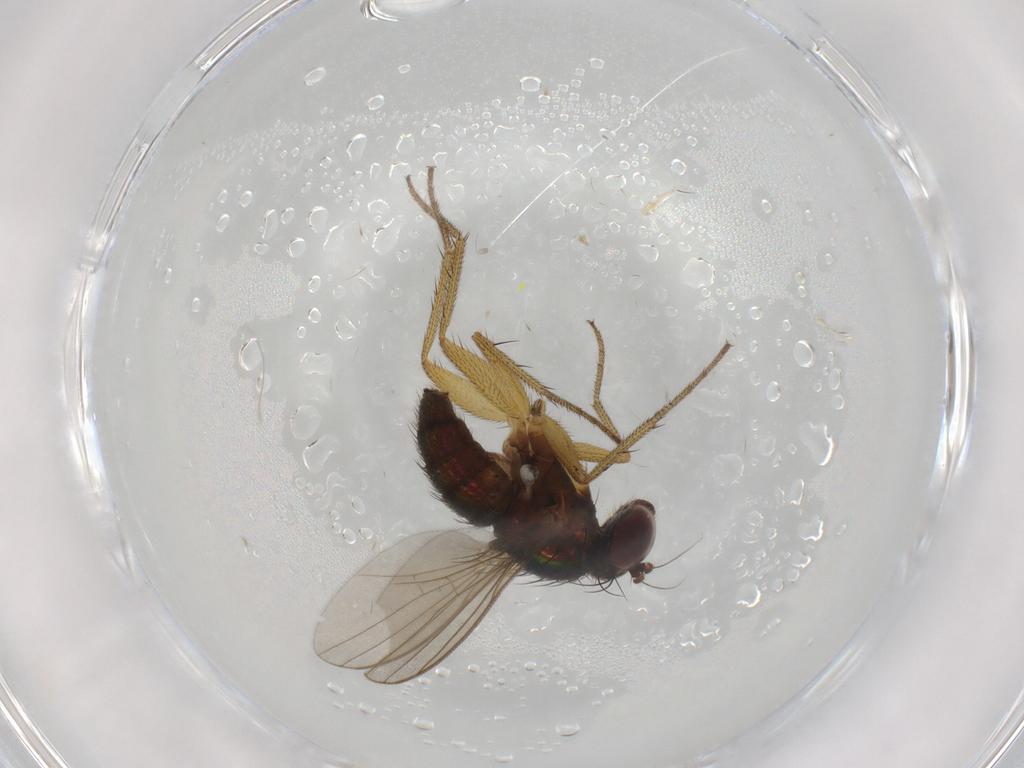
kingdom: Animalia
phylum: Arthropoda
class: Insecta
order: Diptera
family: Dolichopodidae
